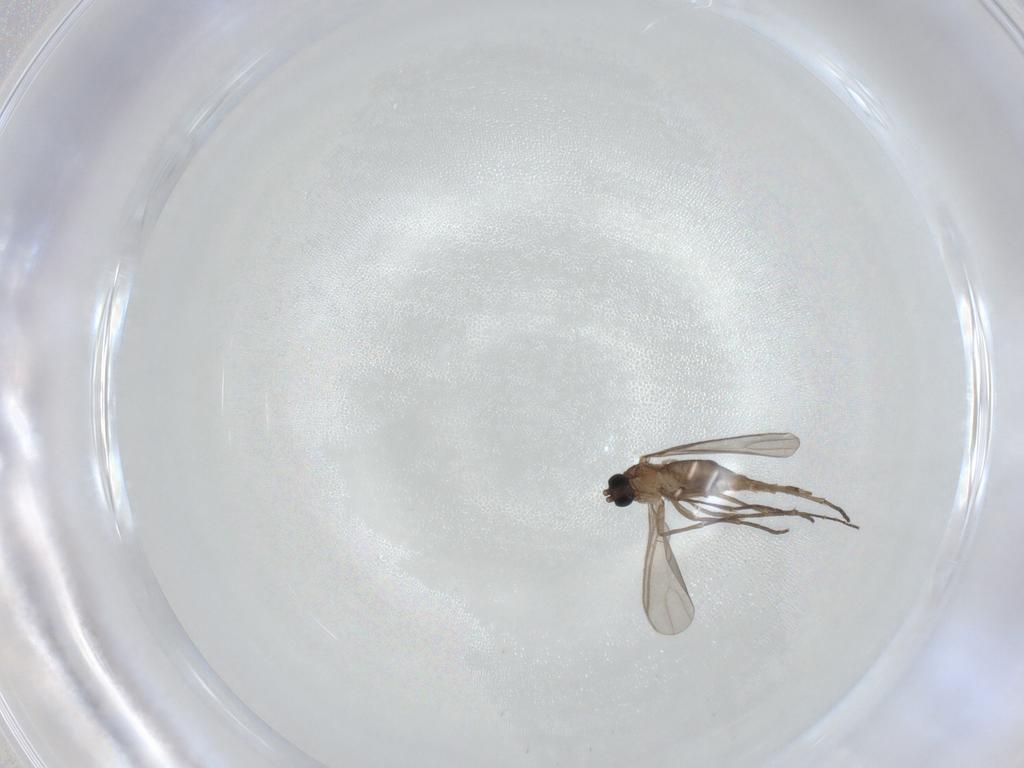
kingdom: Animalia
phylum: Arthropoda
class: Insecta
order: Diptera
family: Sciaridae
